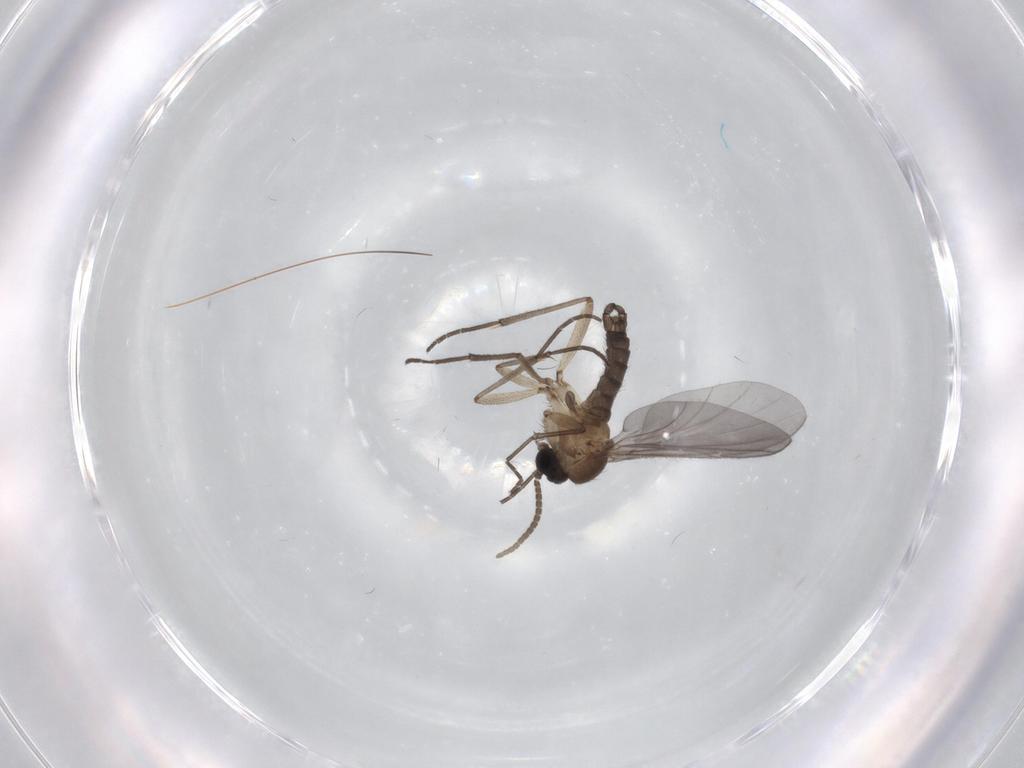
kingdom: Animalia
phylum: Arthropoda
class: Insecta
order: Diptera
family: Sciaridae
